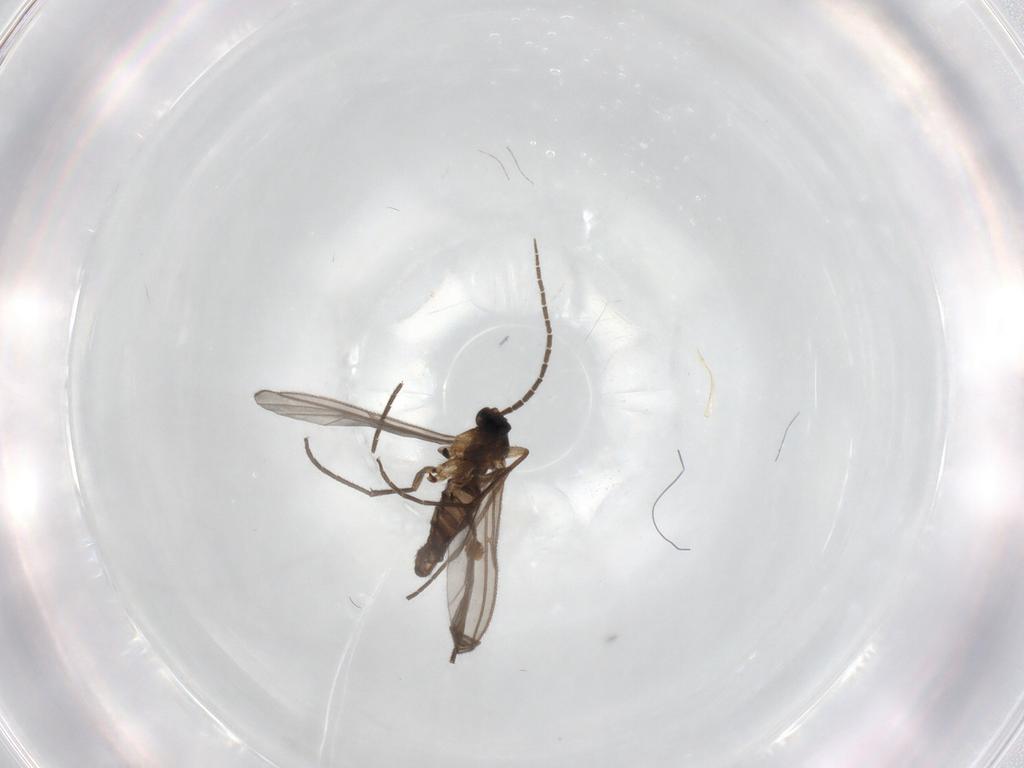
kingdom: Animalia
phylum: Arthropoda
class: Insecta
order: Diptera
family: Sciaridae
